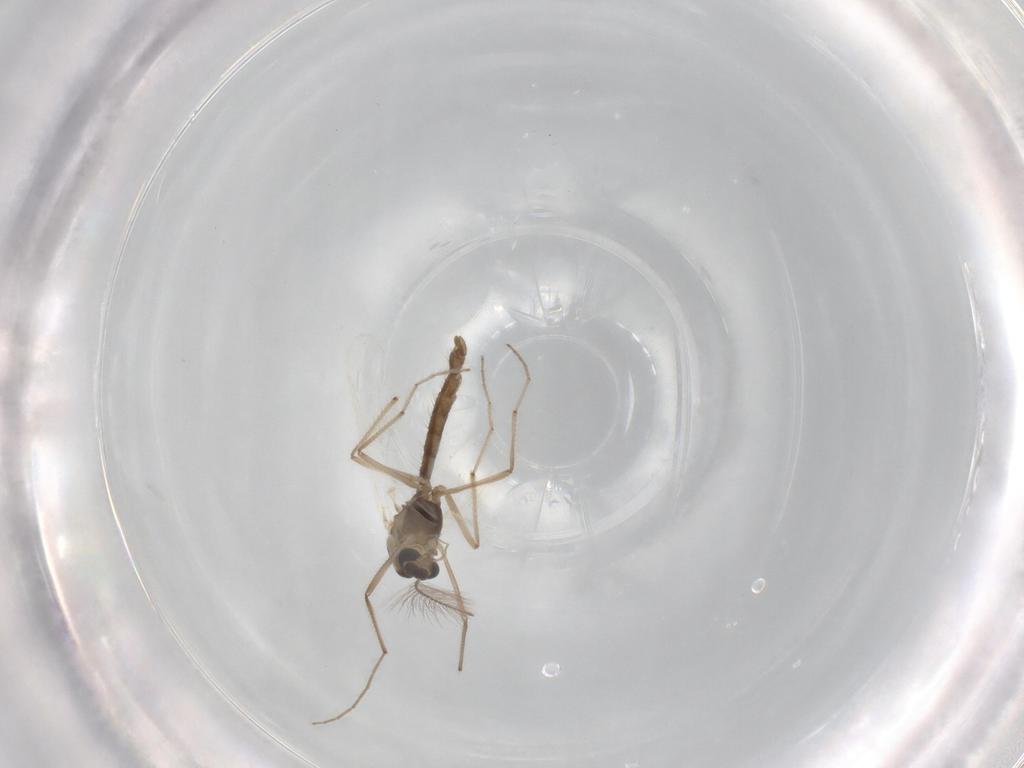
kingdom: Animalia
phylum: Arthropoda
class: Insecta
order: Diptera
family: Chironomidae
